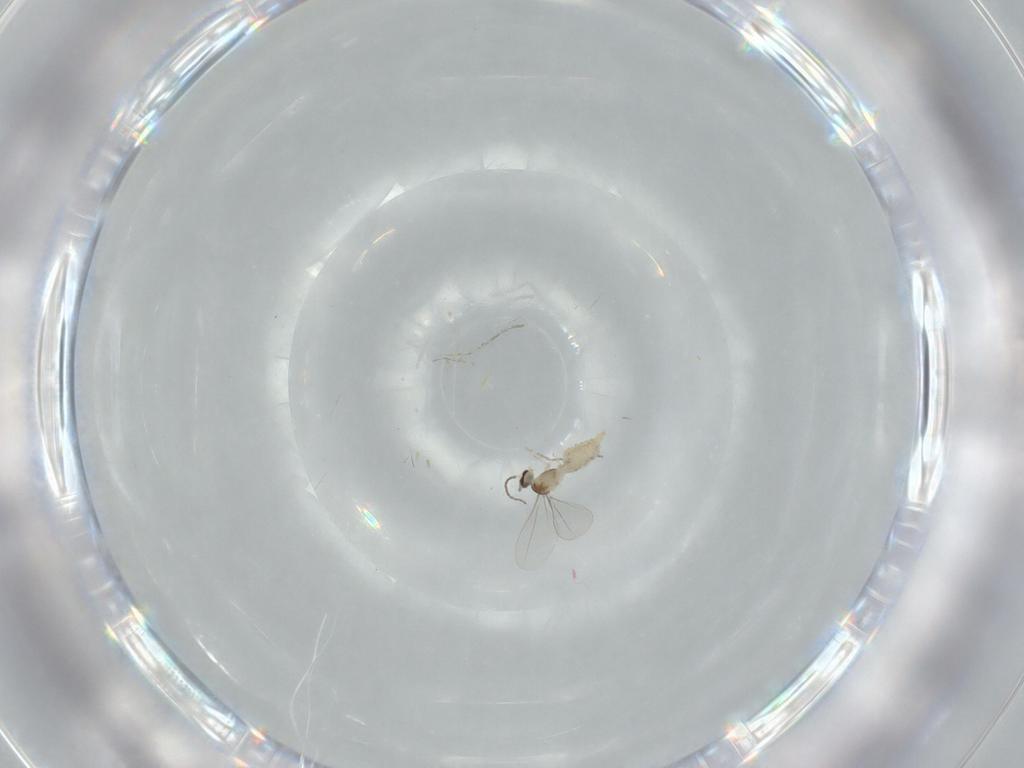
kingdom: Animalia
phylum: Arthropoda
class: Insecta
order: Diptera
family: Cecidomyiidae
